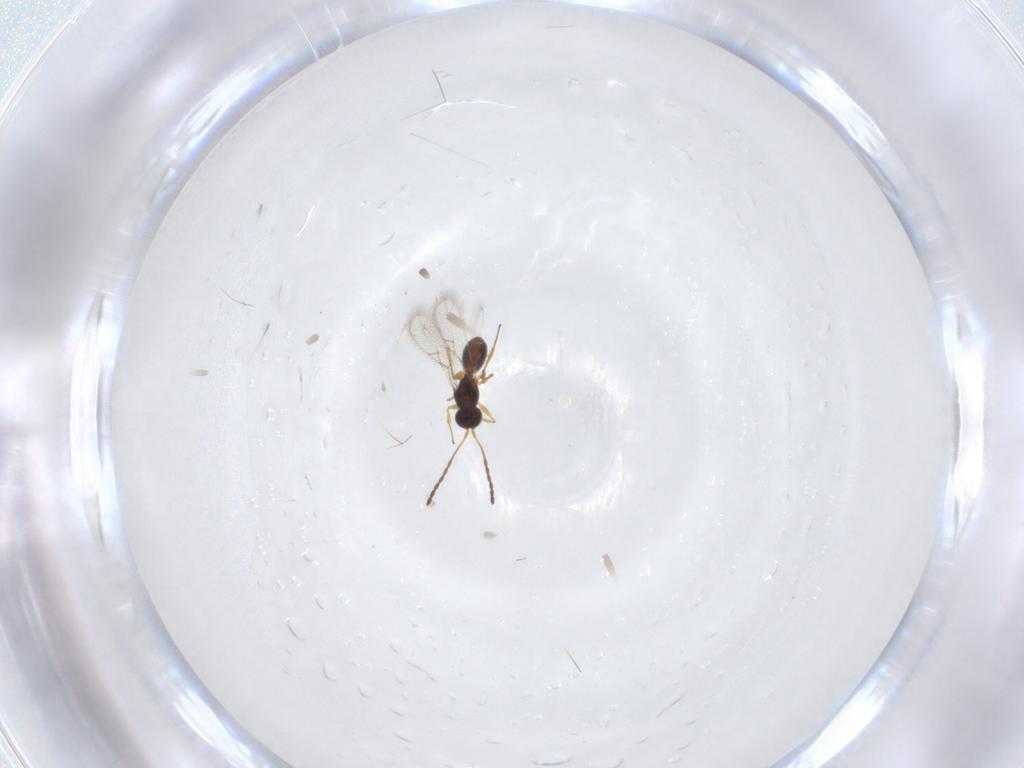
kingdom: Animalia
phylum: Arthropoda
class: Insecta
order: Hymenoptera
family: Figitidae
